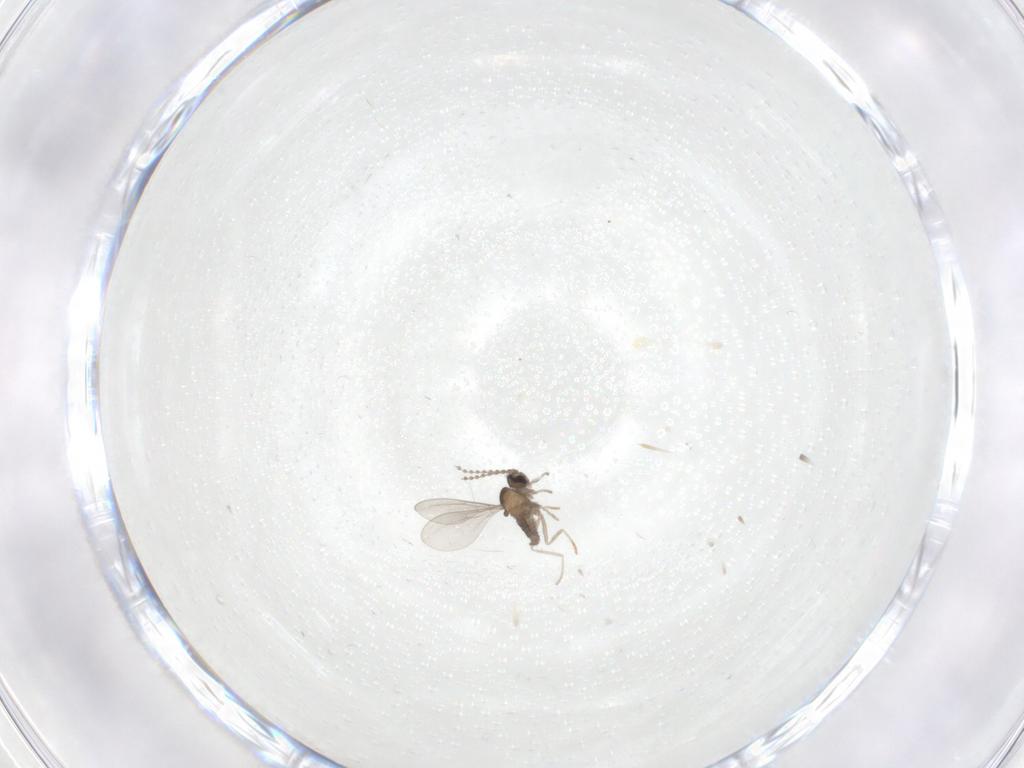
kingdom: Animalia
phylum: Arthropoda
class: Insecta
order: Diptera
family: Cecidomyiidae
